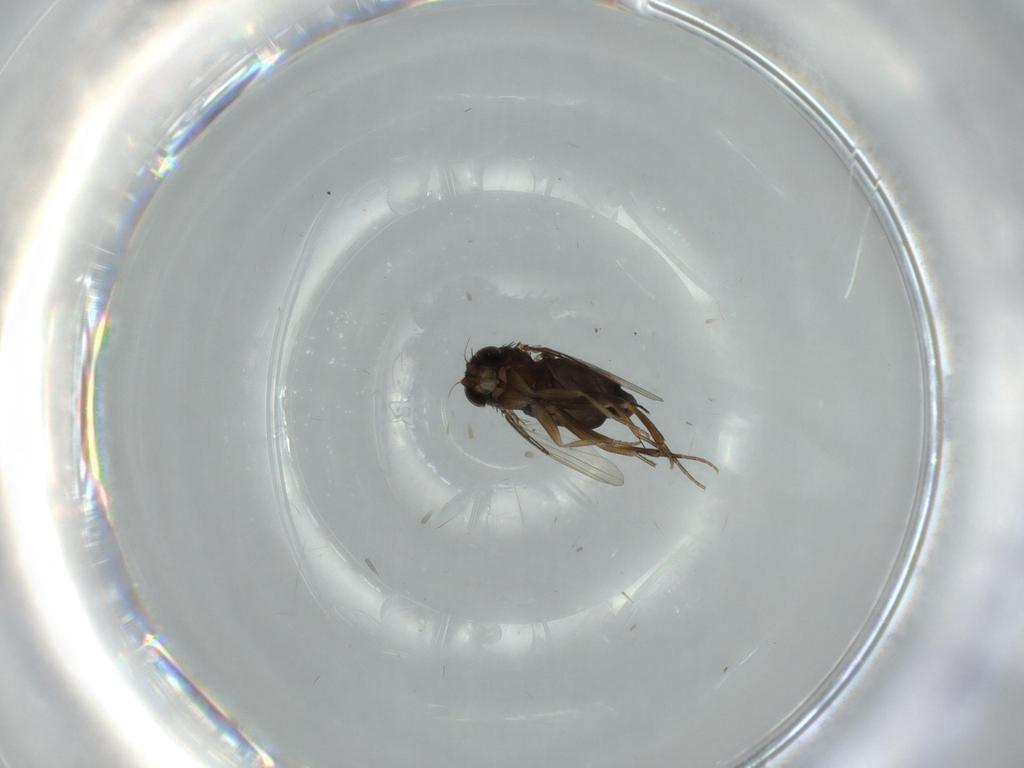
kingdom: Animalia
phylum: Arthropoda
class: Insecta
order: Diptera
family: Phoridae
